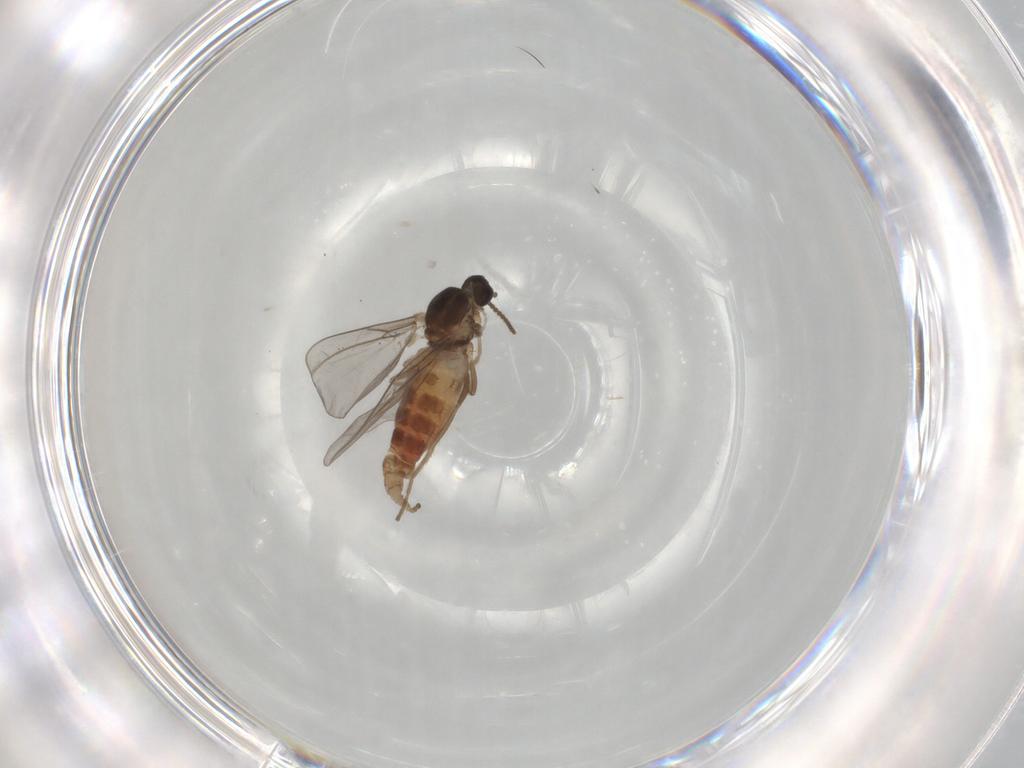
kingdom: Animalia
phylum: Arthropoda
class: Insecta
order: Diptera
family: Cecidomyiidae
